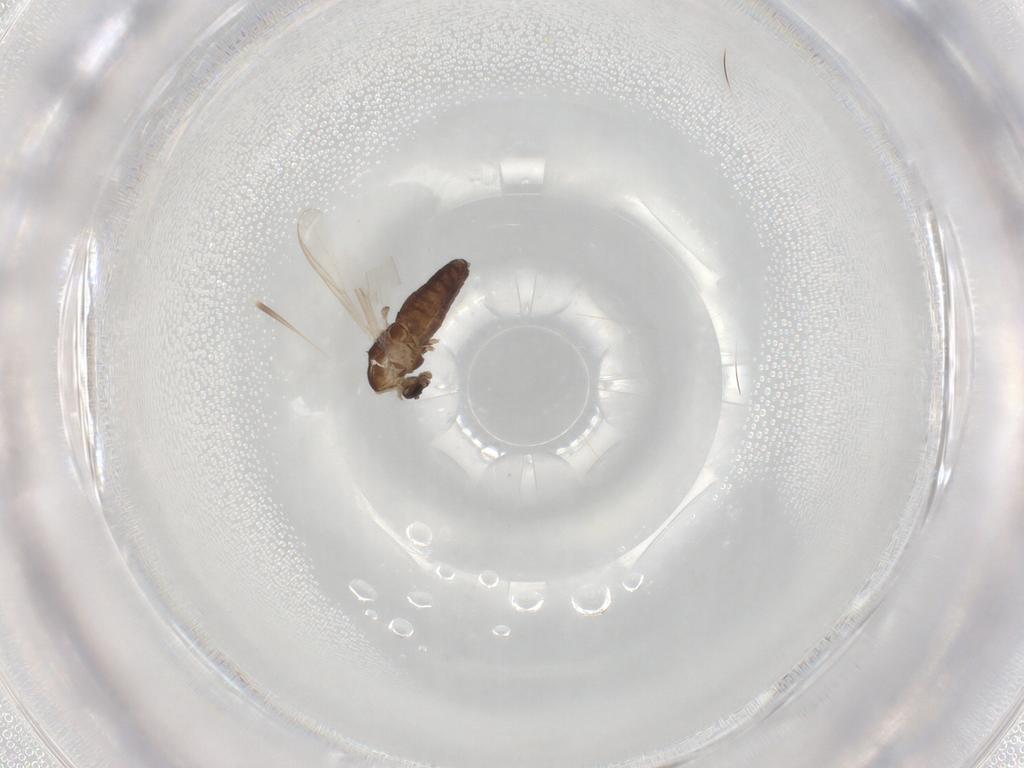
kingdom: Animalia
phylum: Arthropoda
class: Insecta
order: Diptera
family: Chironomidae
